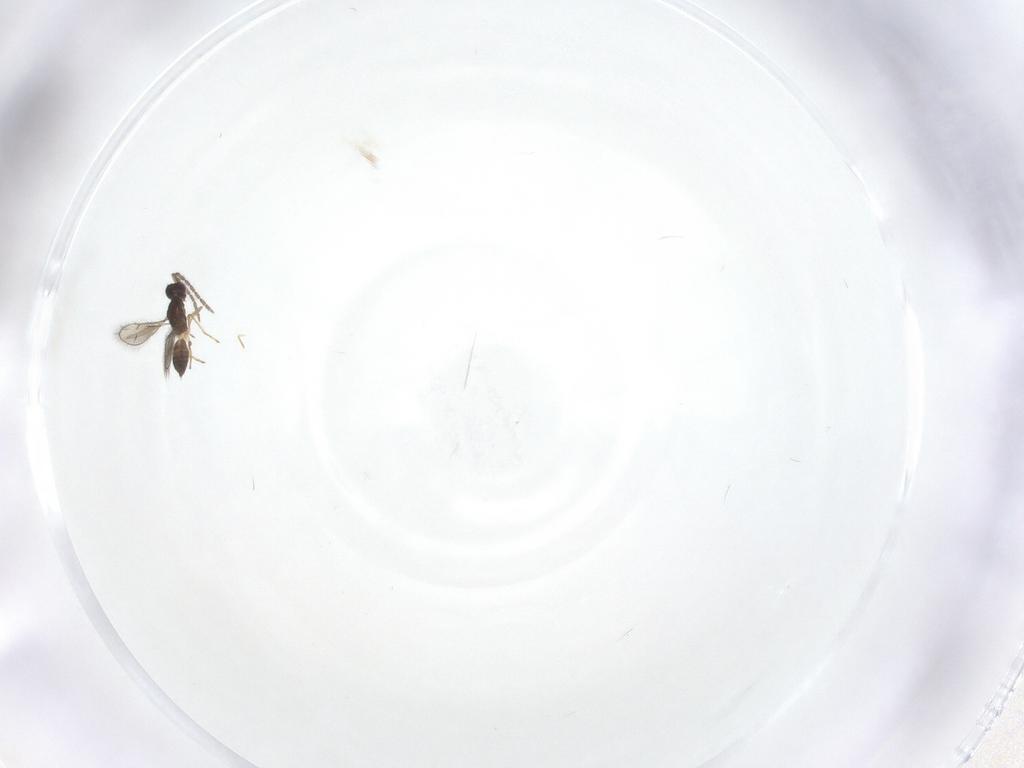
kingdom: Animalia
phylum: Arthropoda
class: Insecta
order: Hymenoptera
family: Eulophidae
